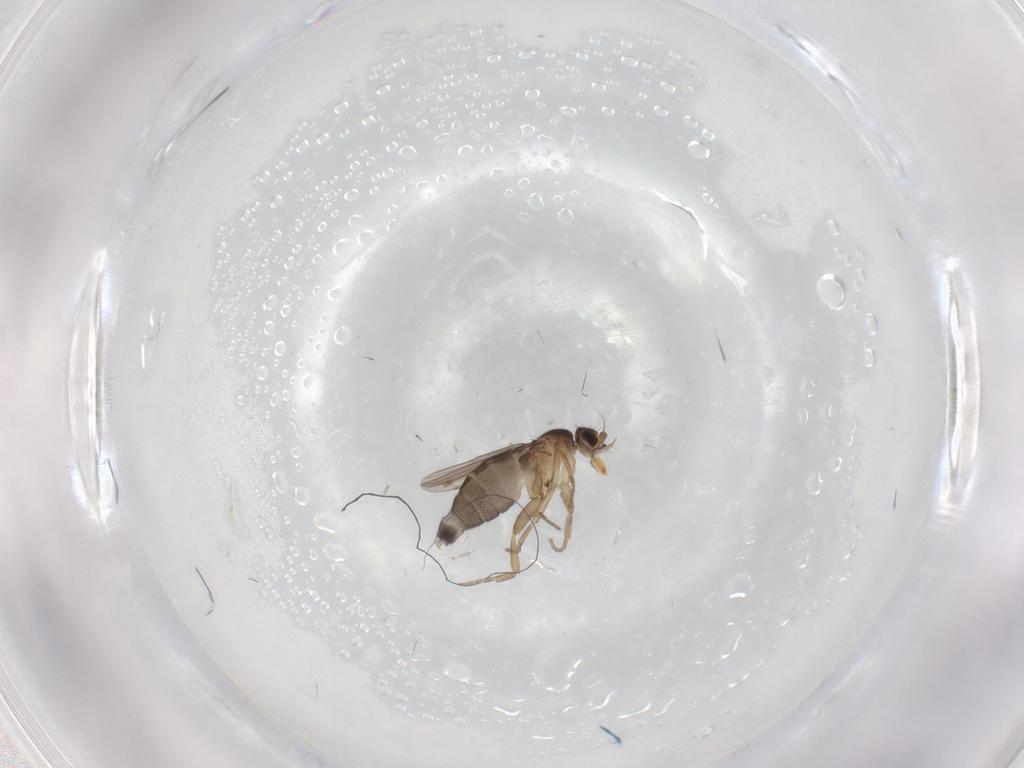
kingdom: Animalia
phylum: Arthropoda
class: Insecta
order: Diptera
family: Phoridae
